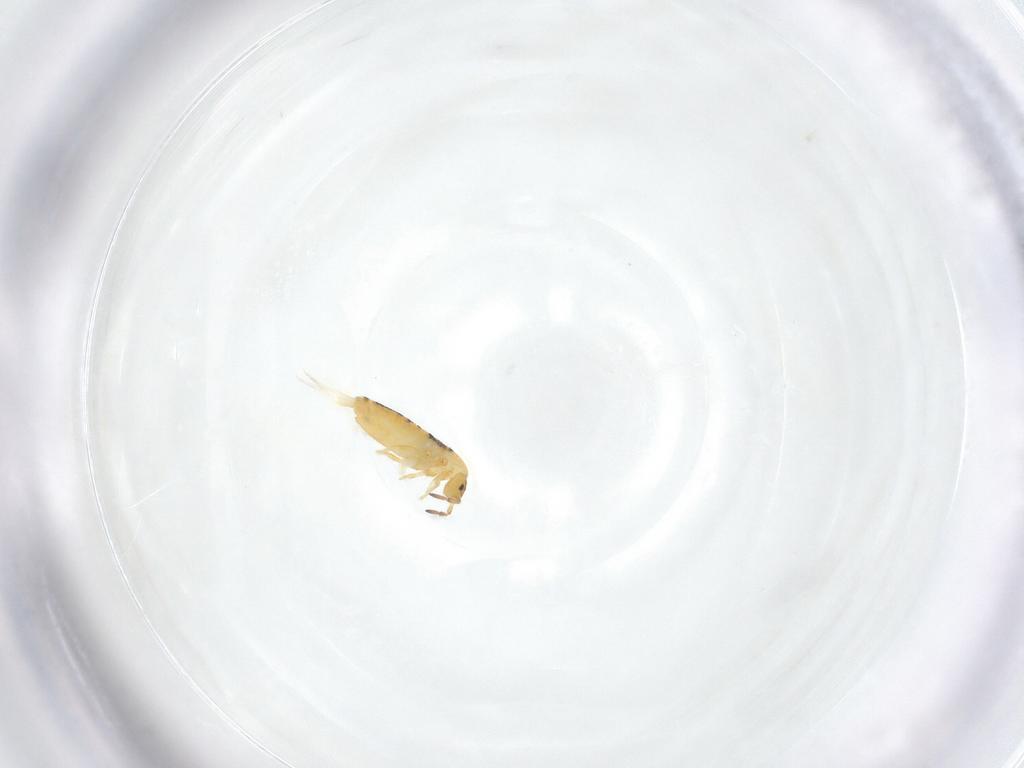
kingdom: Animalia
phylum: Arthropoda
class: Collembola
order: Entomobryomorpha
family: Entomobryidae
